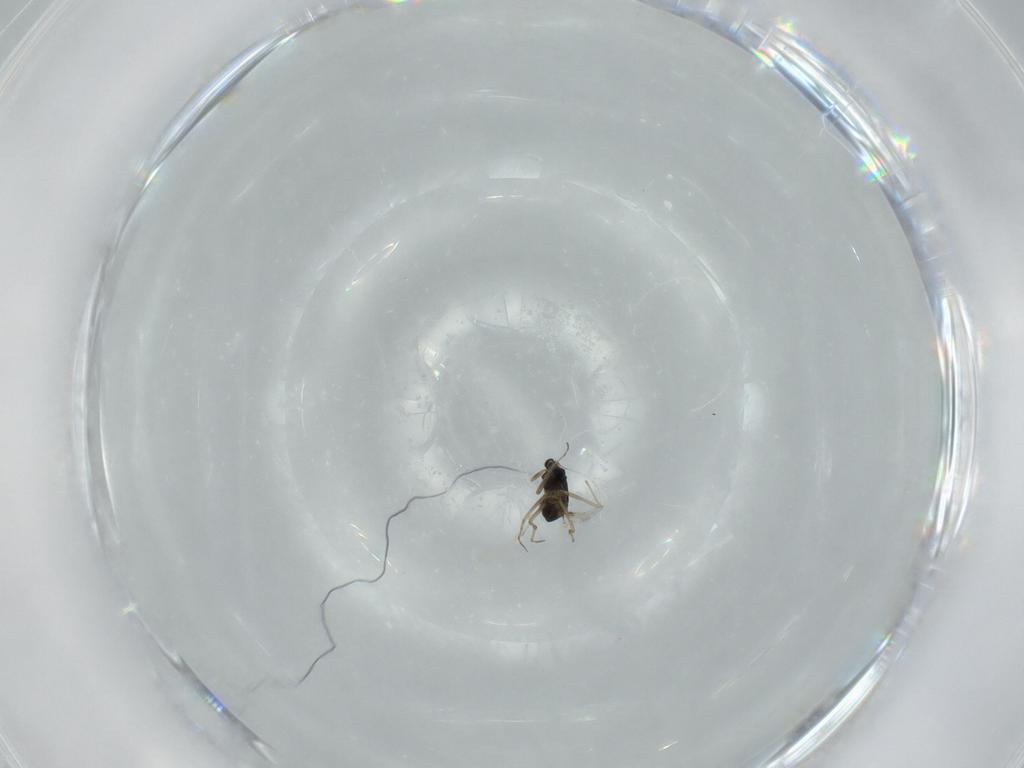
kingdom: Animalia
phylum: Arthropoda
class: Insecta
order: Diptera
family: Chironomidae
